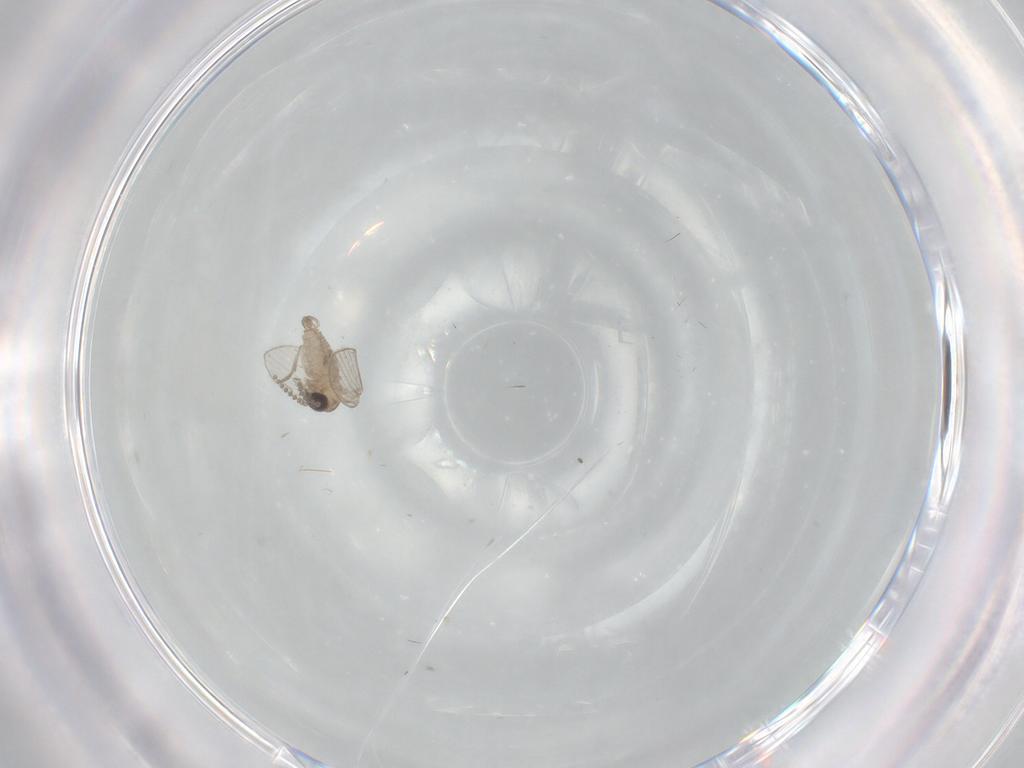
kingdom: Animalia
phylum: Arthropoda
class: Insecta
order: Diptera
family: Psychodidae
